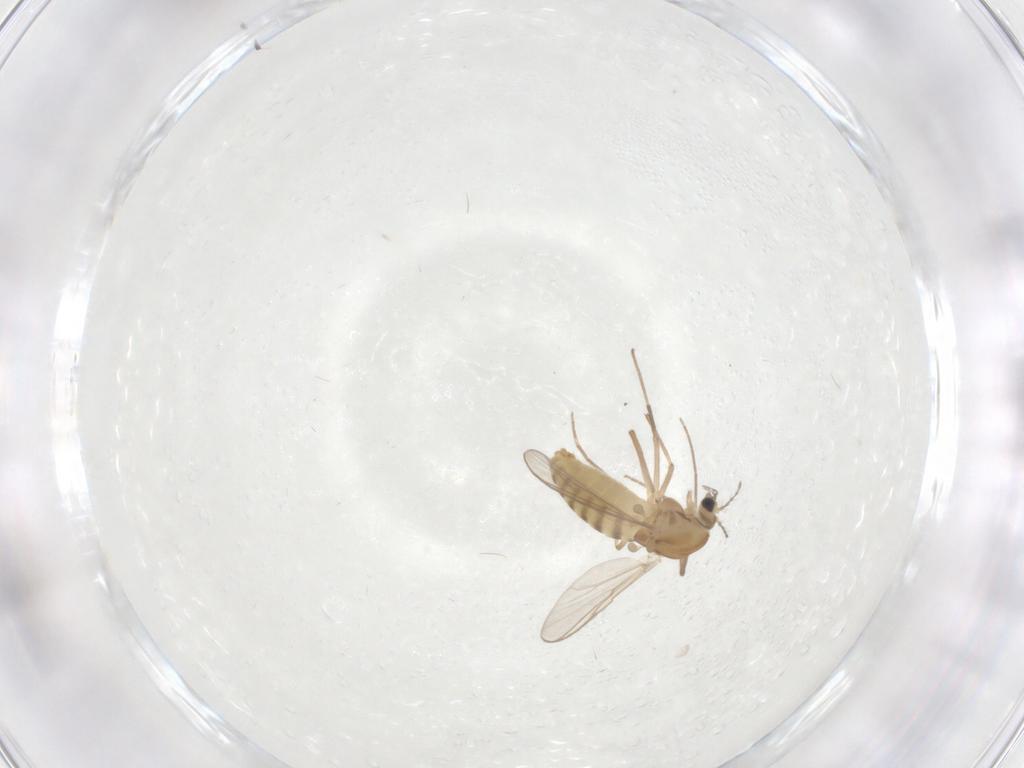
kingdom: Animalia
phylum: Arthropoda
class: Insecta
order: Diptera
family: Chironomidae
